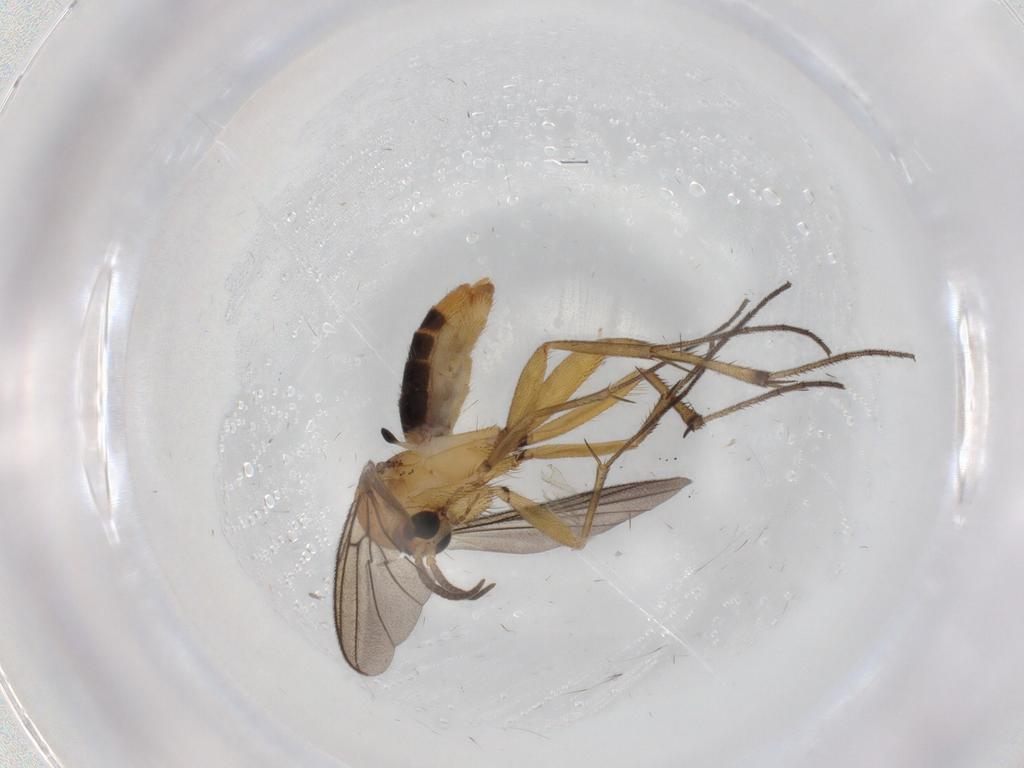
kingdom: Animalia
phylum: Arthropoda
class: Insecta
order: Diptera
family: Mycetophilidae
